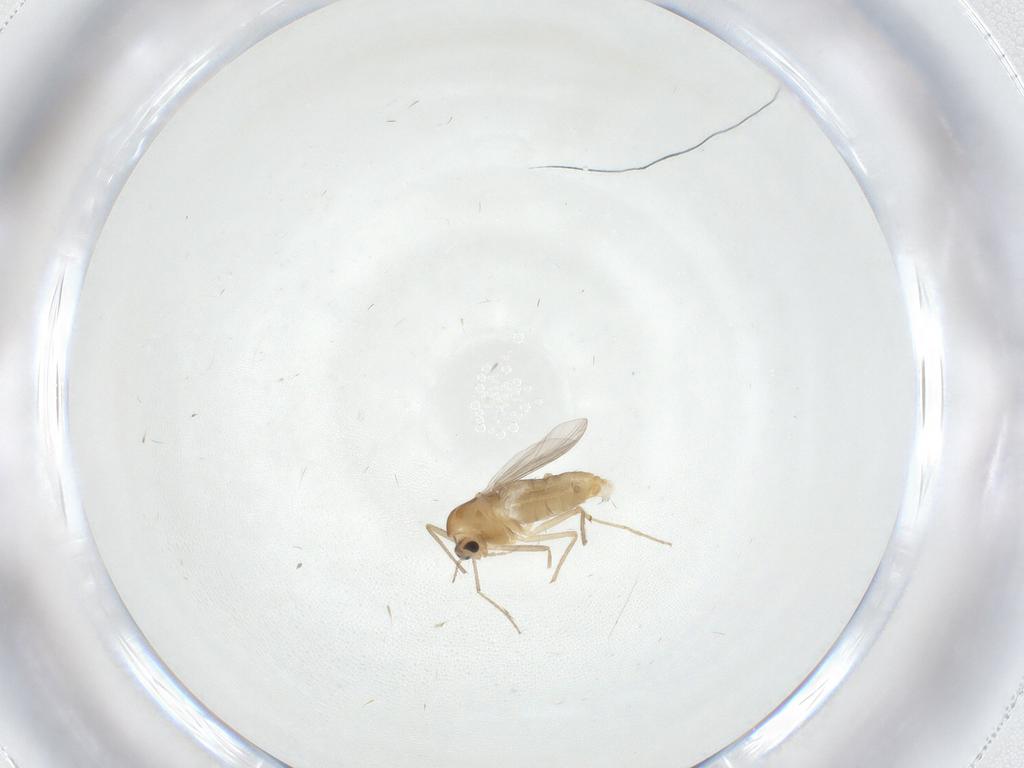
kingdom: Animalia
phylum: Arthropoda
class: Insecta
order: Diptera
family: Chironomidae
